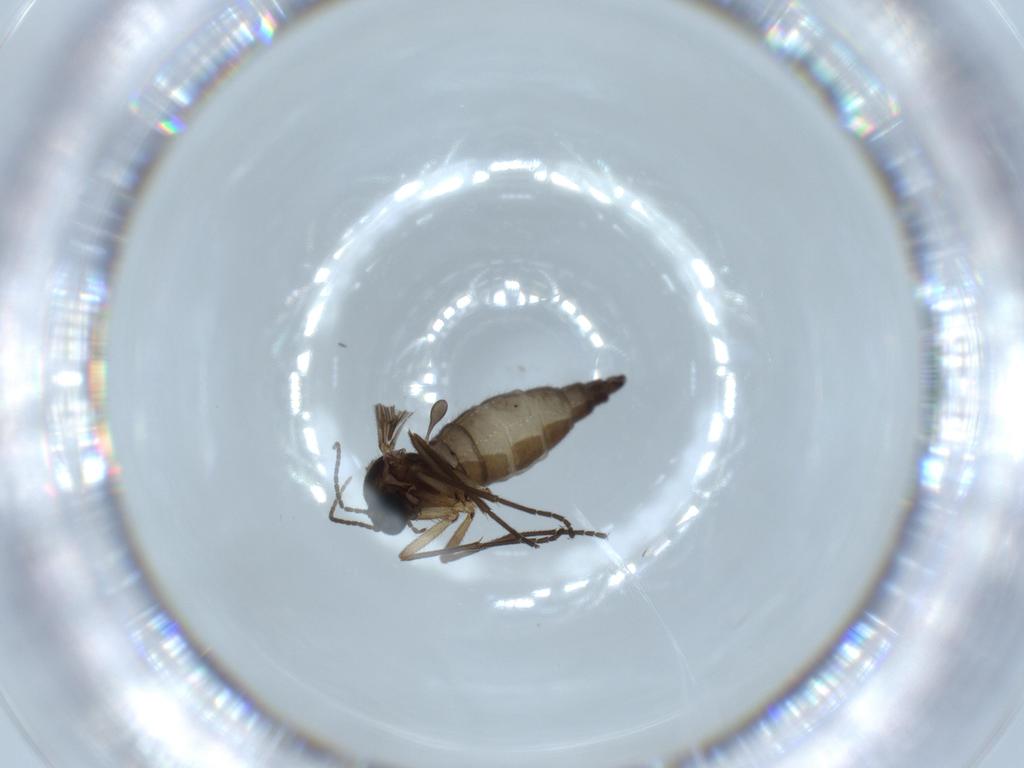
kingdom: Animalia
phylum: Arthropoda
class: Insecta
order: Diptera
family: Sciaridae
